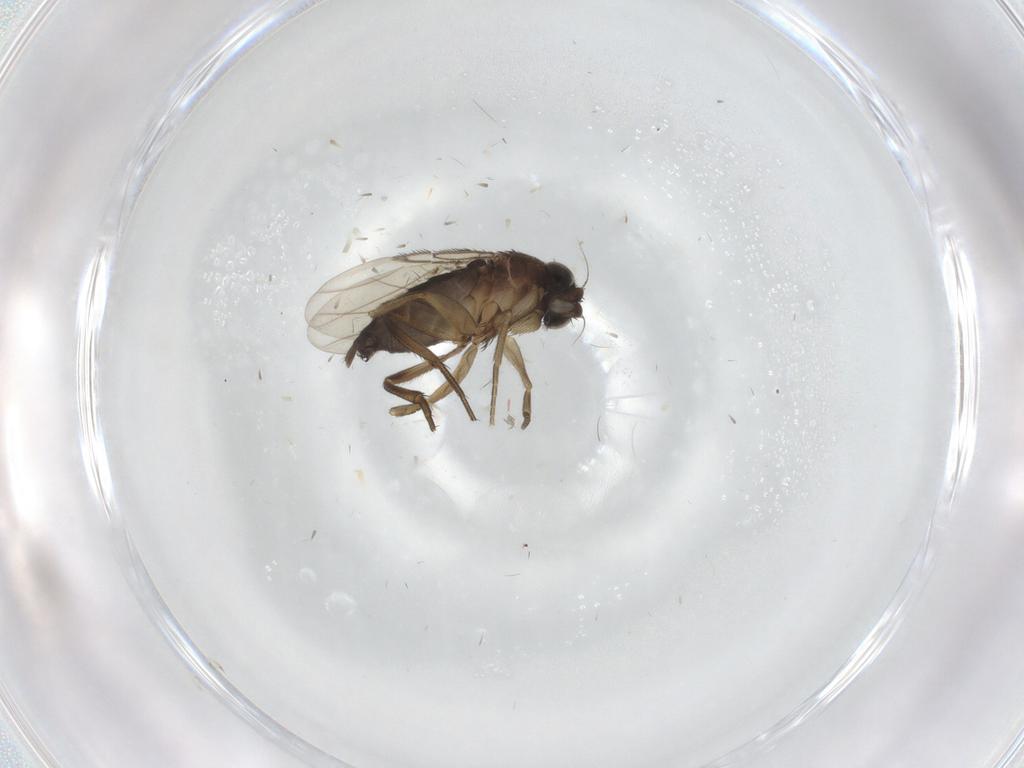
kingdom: Animalia
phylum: Arthropoda
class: Insecta
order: Diptera
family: Chironomidae
